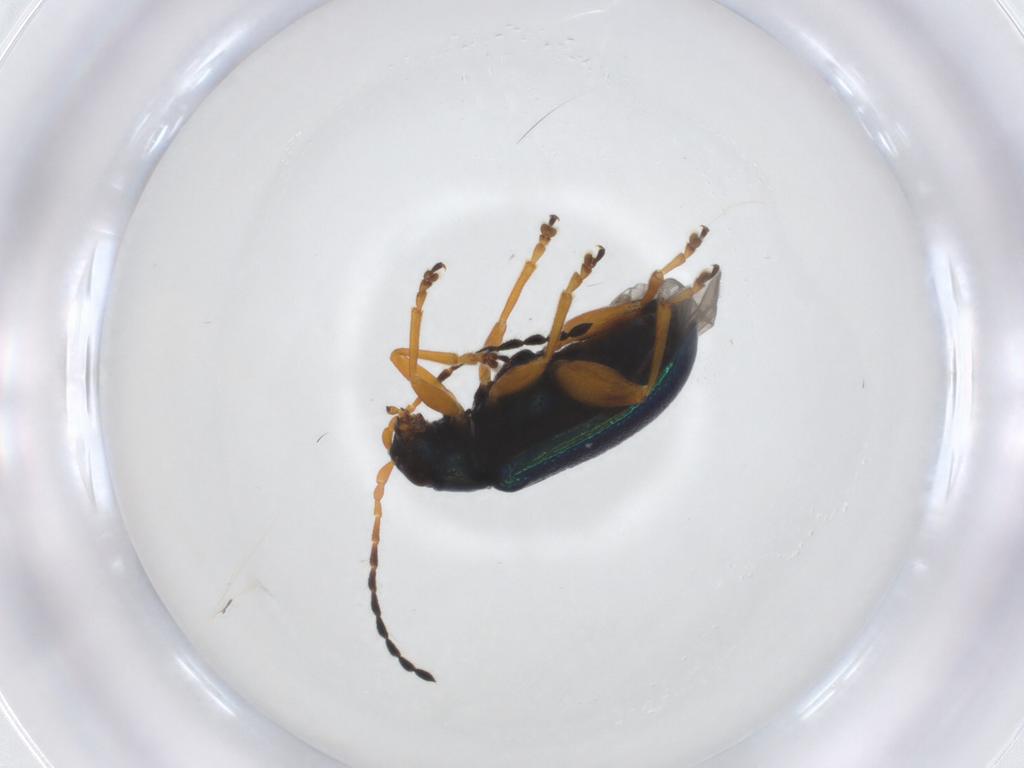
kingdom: Animalia
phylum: Arthropoda
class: Insecta
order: Coleoptera
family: Chrysomelidae
